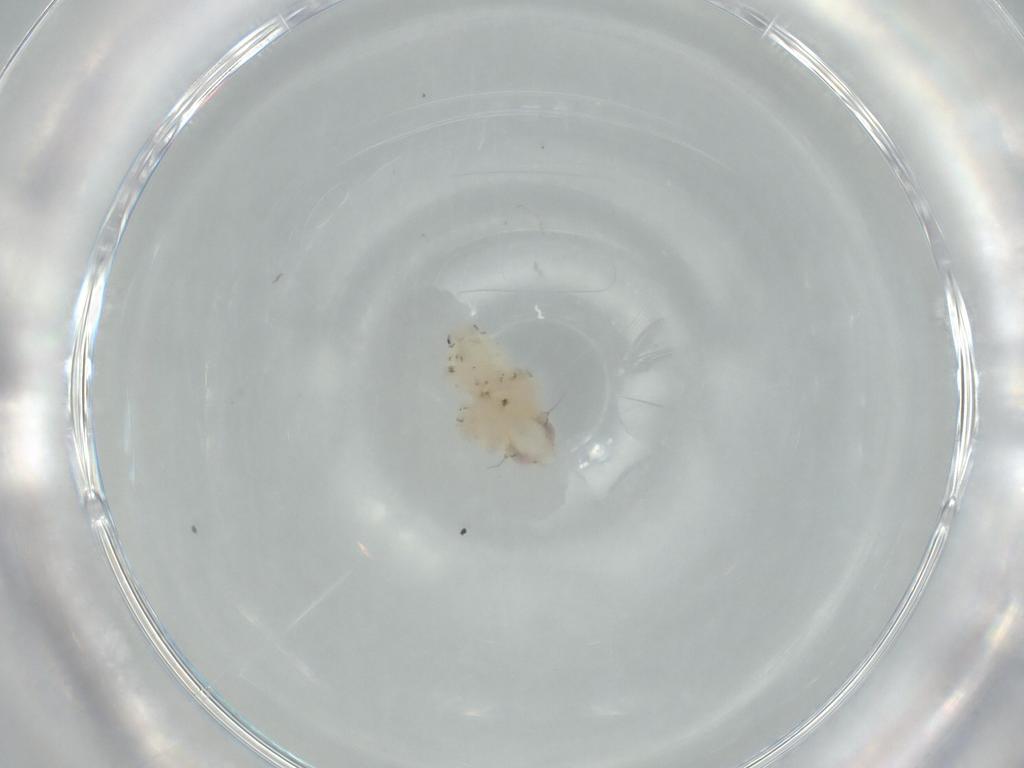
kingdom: Animalia
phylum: Arthropoda
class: Insecta
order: Hemiptera
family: Nogodinidae
